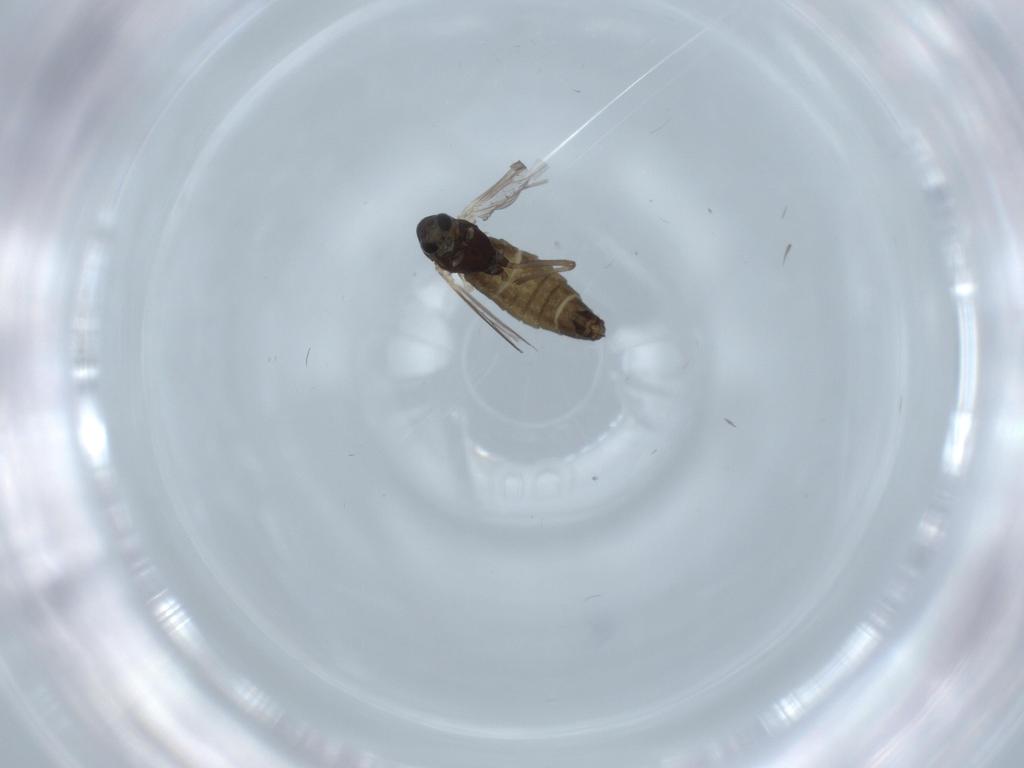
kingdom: Animalia
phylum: Arthropoda
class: Insecta
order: Diptera
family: Chironomidae
